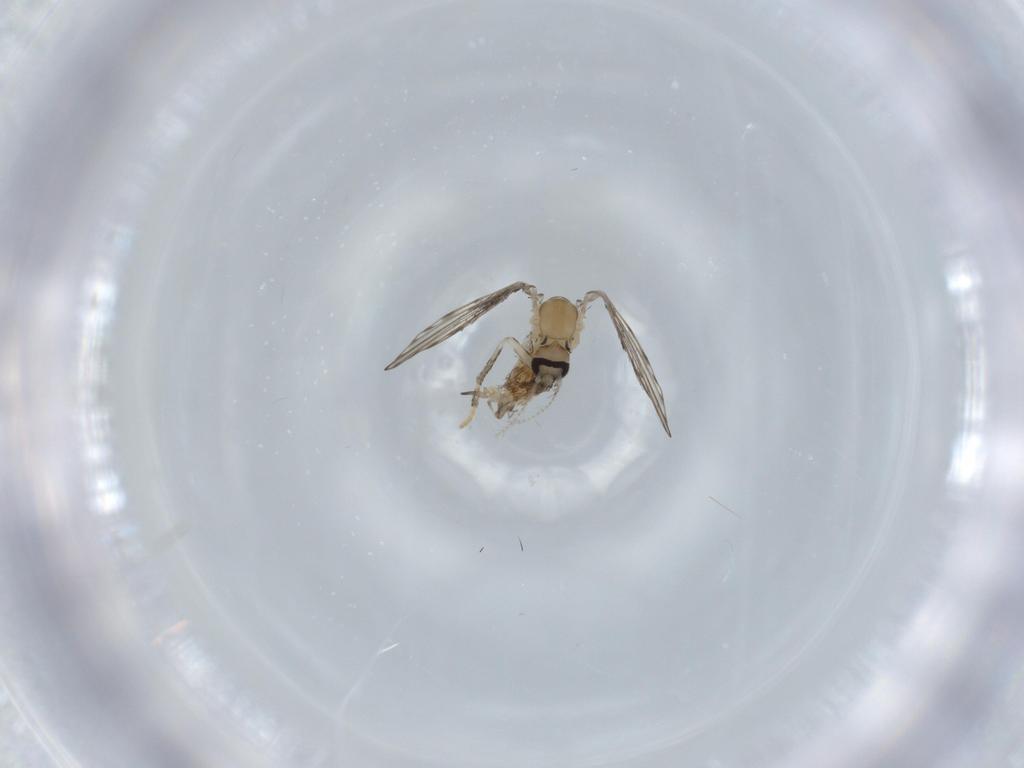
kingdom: Animalia
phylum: Arthropoda
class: Insecta
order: Diptera
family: Psychodidae
